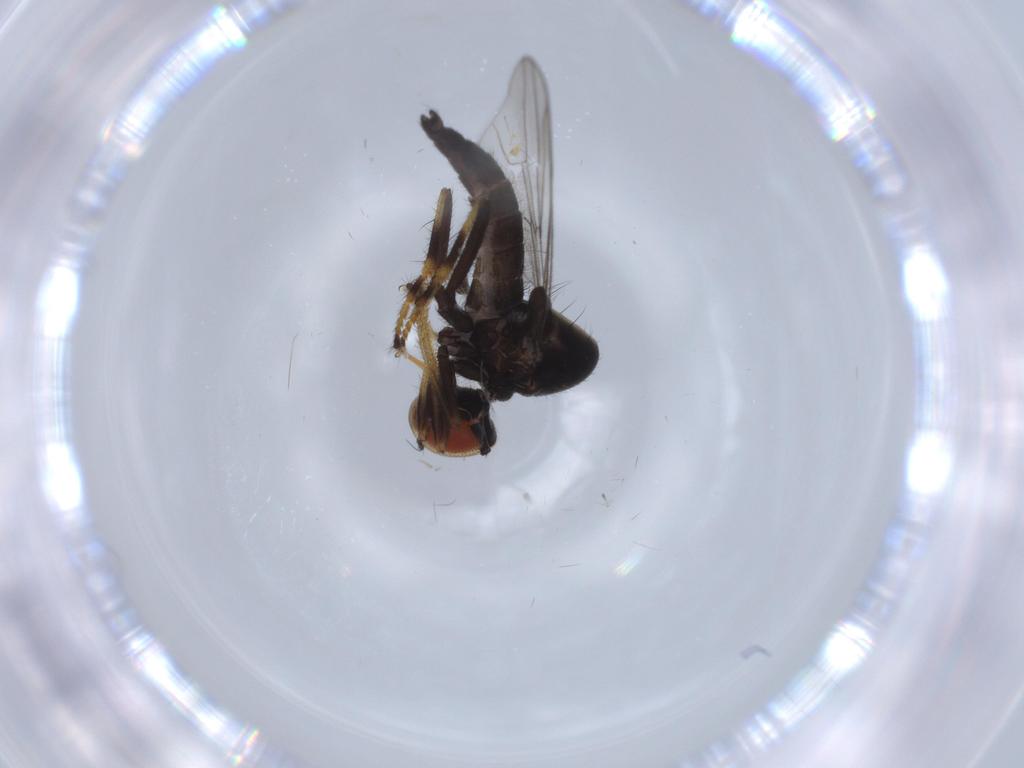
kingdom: Animalia
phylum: Arthropoda
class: Insecta
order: Diptera
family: Hybotidae
